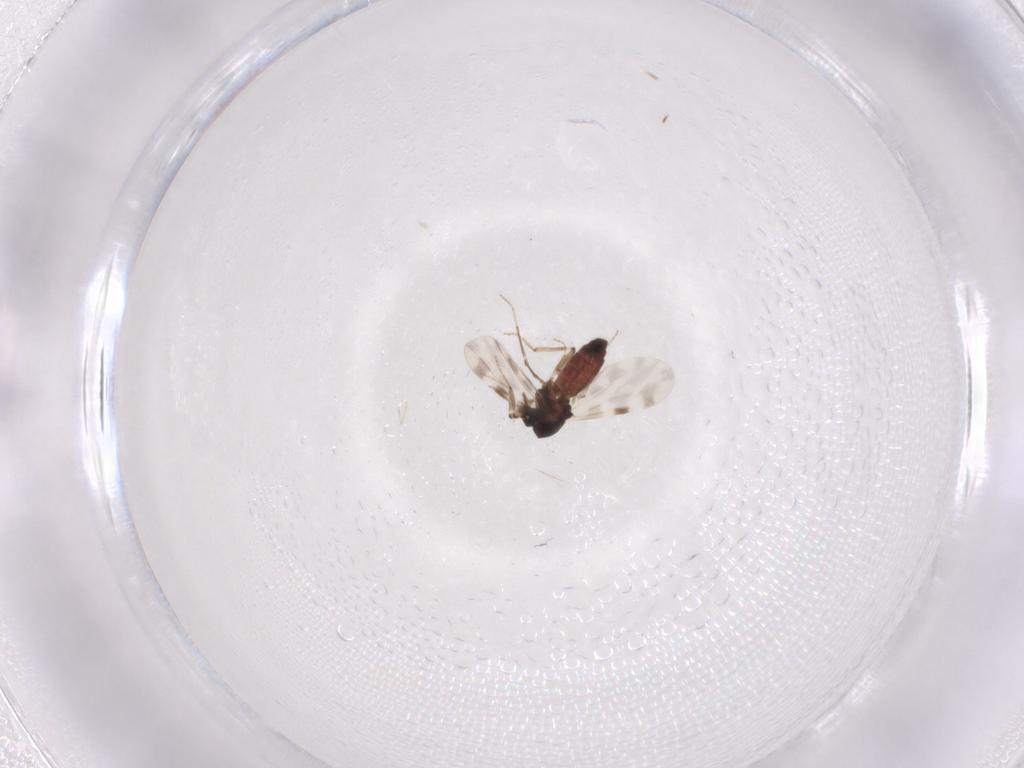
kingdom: Animalia
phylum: Arthropoda
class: Insecta
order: Diptera
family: Ceratopogonidae
